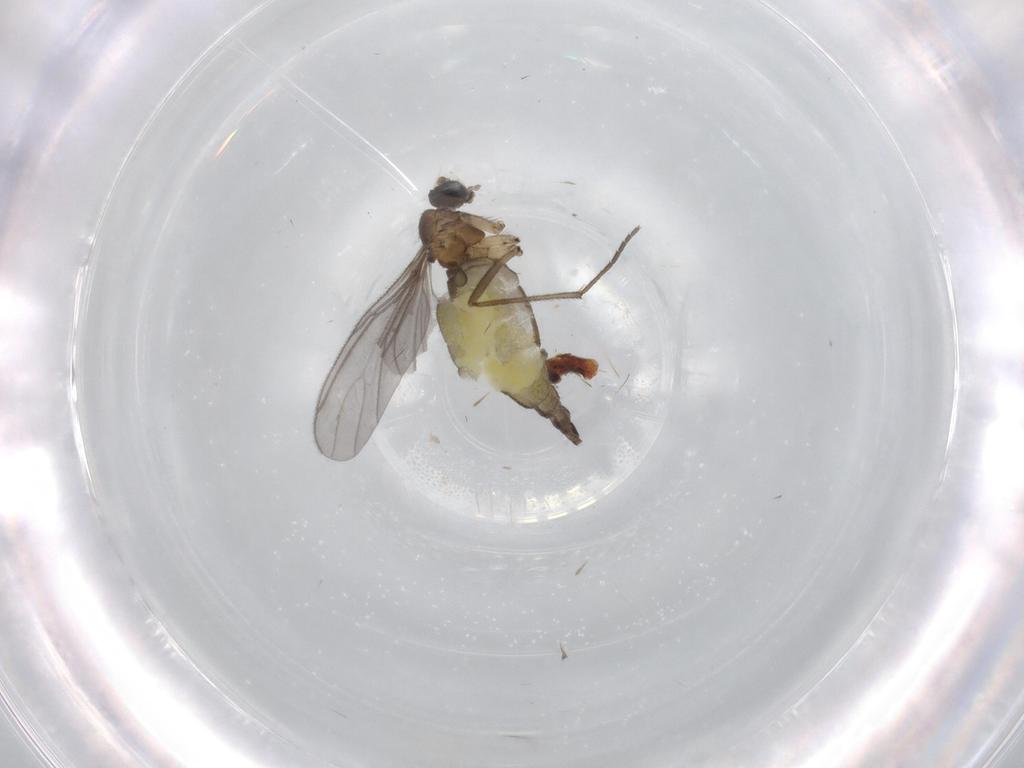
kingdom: Animalia
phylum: Arthropoda
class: Insecta
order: Diptera
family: Sciaridae
